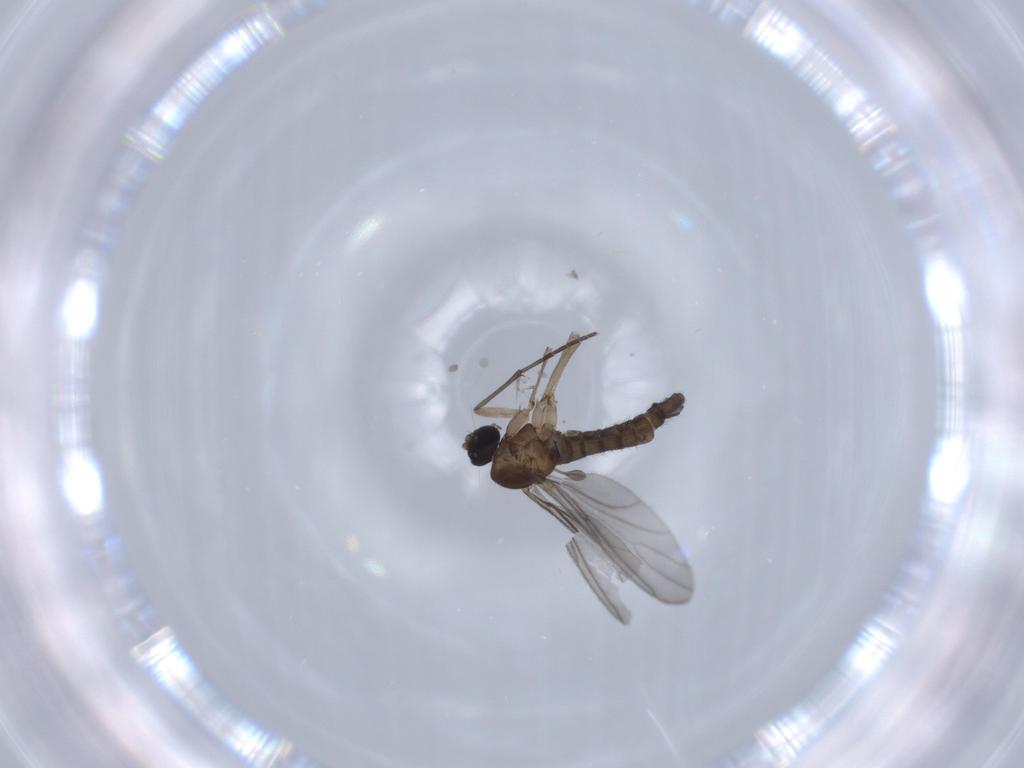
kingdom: Animalia
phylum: Arthropoda
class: Insecta
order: Diptera
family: Sciaridae
